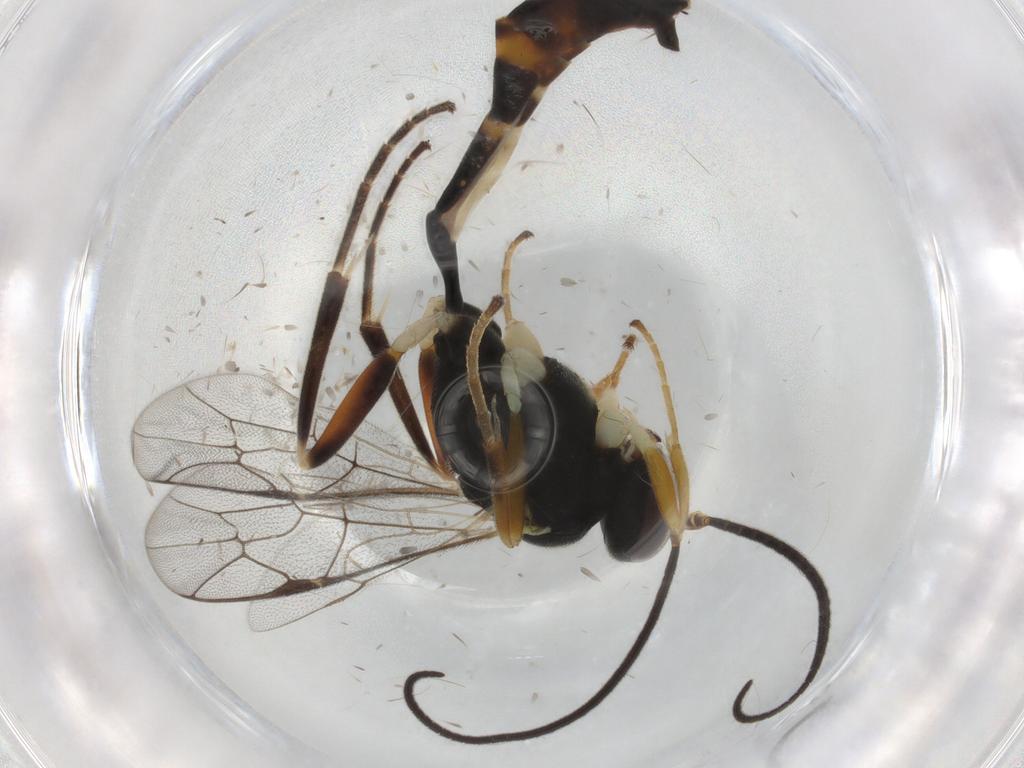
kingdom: Animalia
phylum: Arthropoda
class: Insecta
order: Hymenoptera
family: Ichneumonidae
